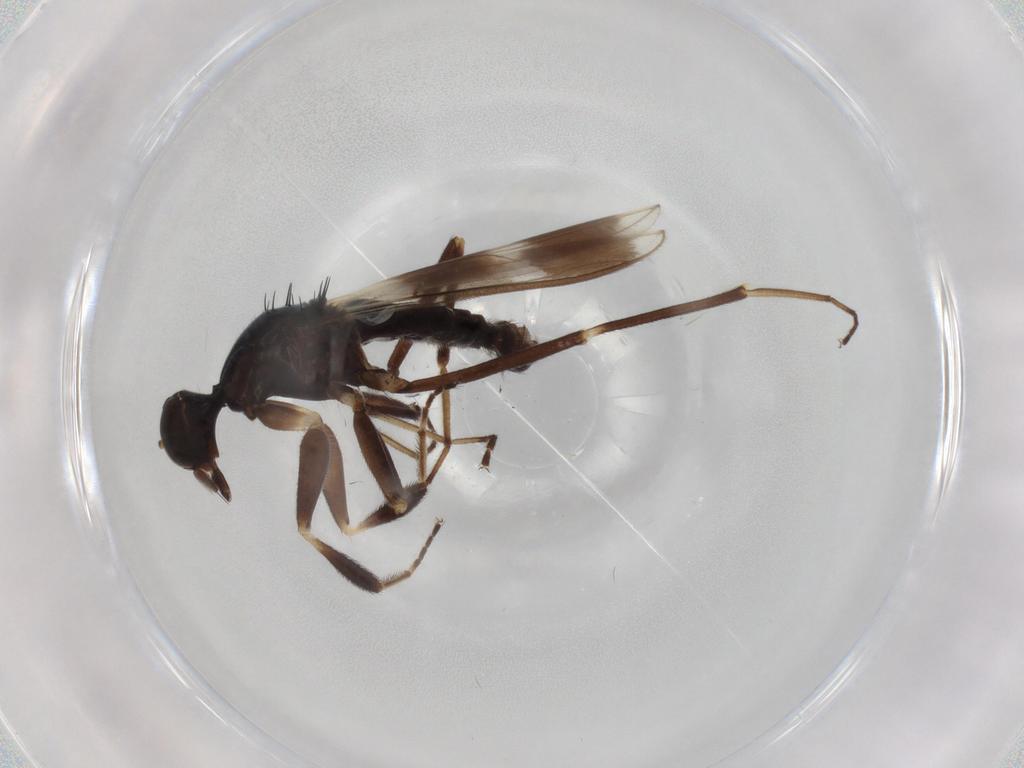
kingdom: Animalia
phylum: Arthropoda
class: Insecta
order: Diptera
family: Hybotidae
